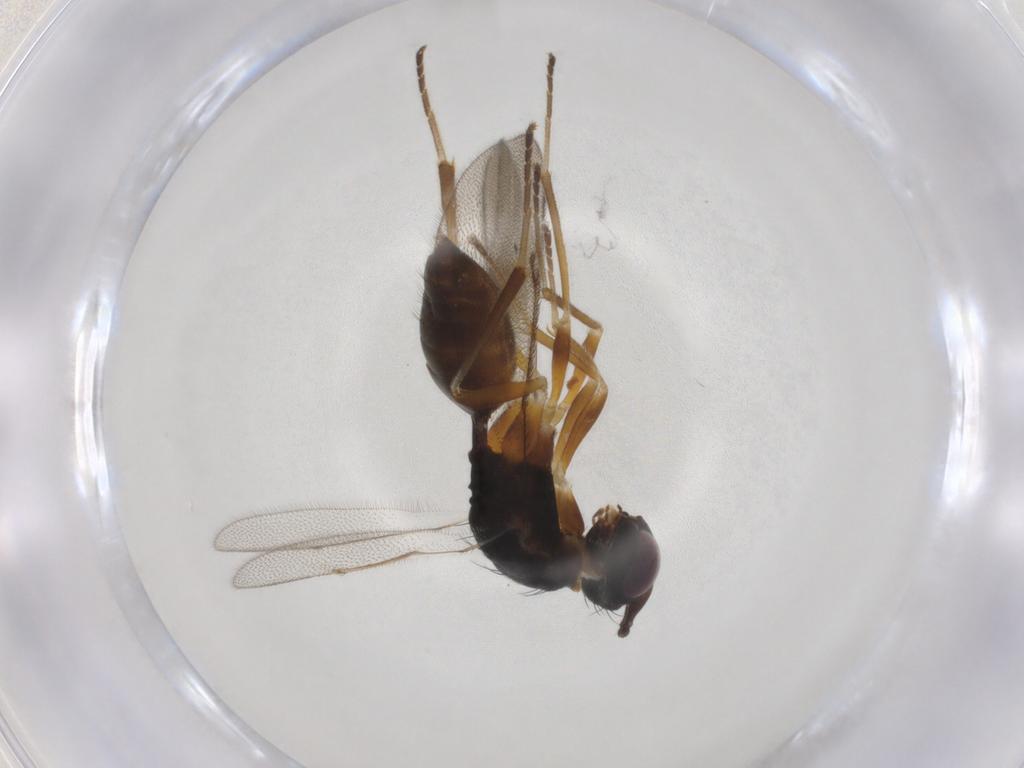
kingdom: Animalia
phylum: Arthropoda
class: Insecta
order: Hymenoptera
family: Diparidae
